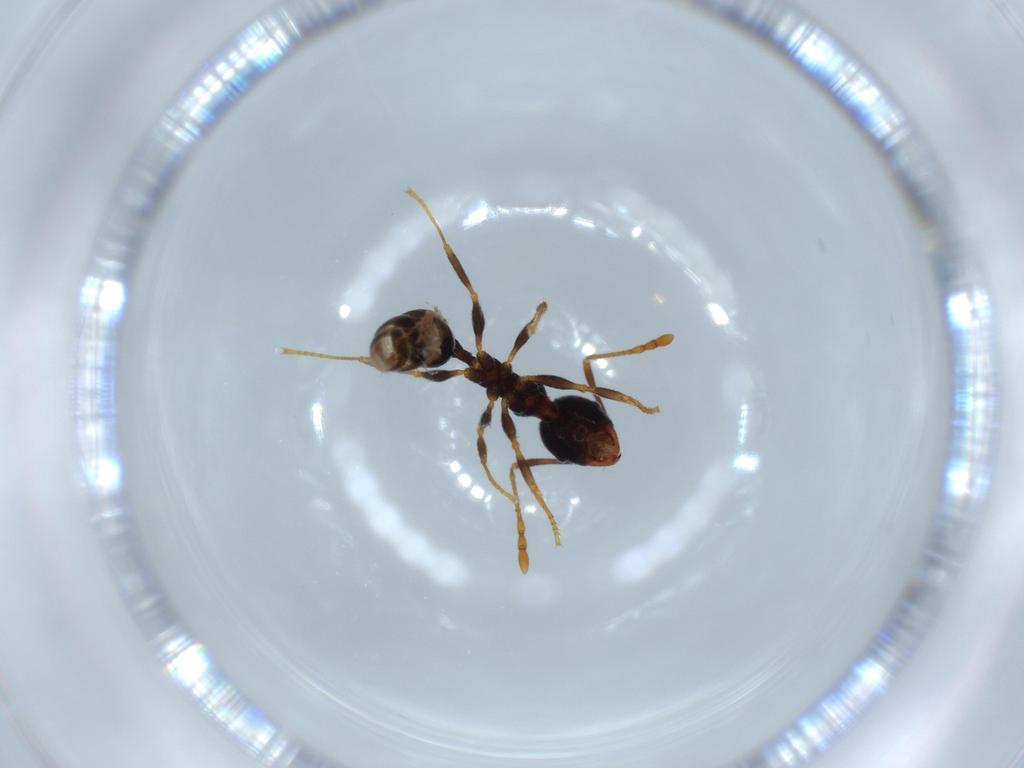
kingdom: Animalia
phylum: Arthropoda
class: Insecta
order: Hymenoptera
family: Formicidae
